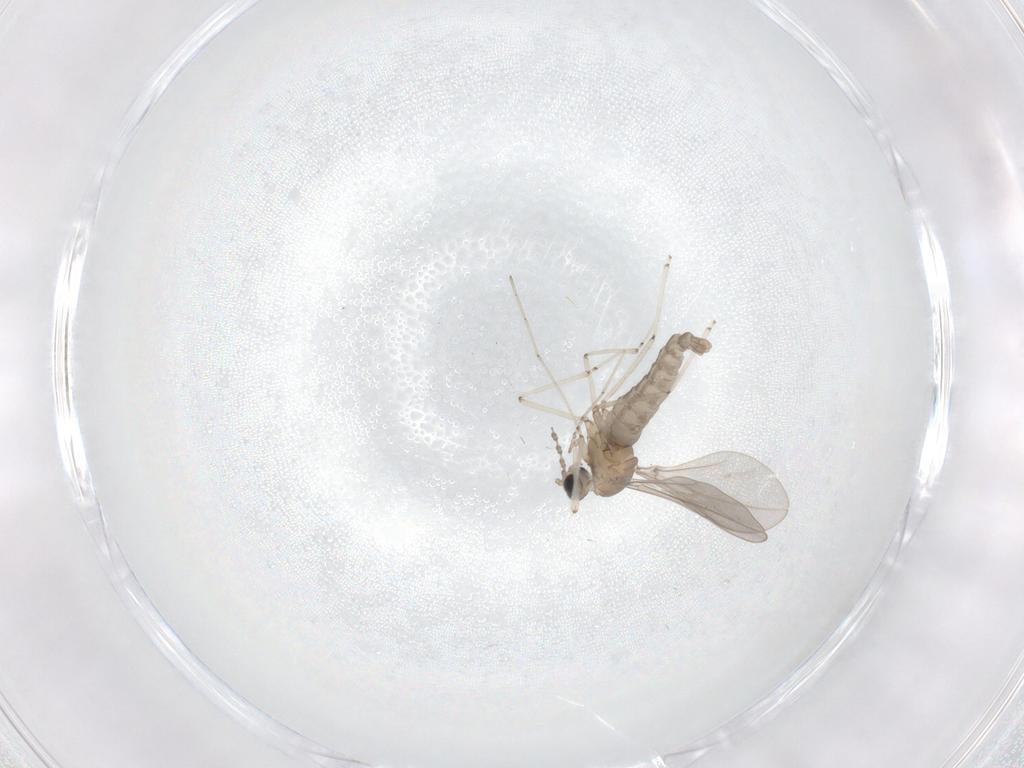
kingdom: Animalia
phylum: Arthropoda
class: Insecta
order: Diptera
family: Cecidomyiidae
